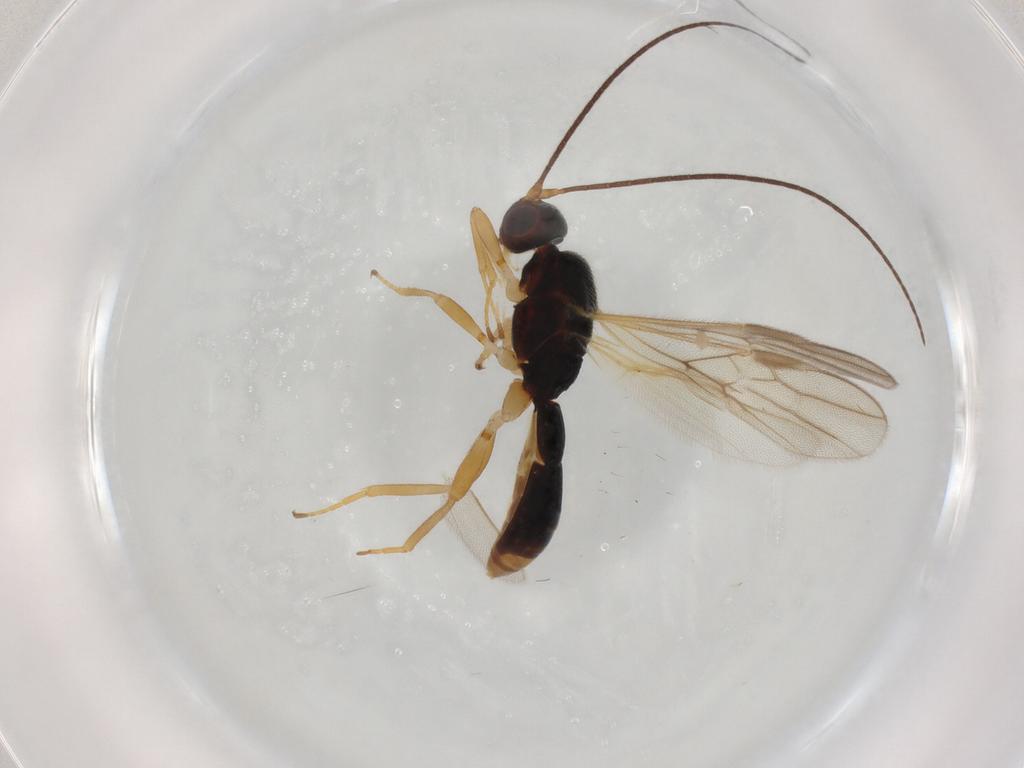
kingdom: Animalia
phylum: Arthropoda
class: Insecta
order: Hymenoptera
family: Braconidae
